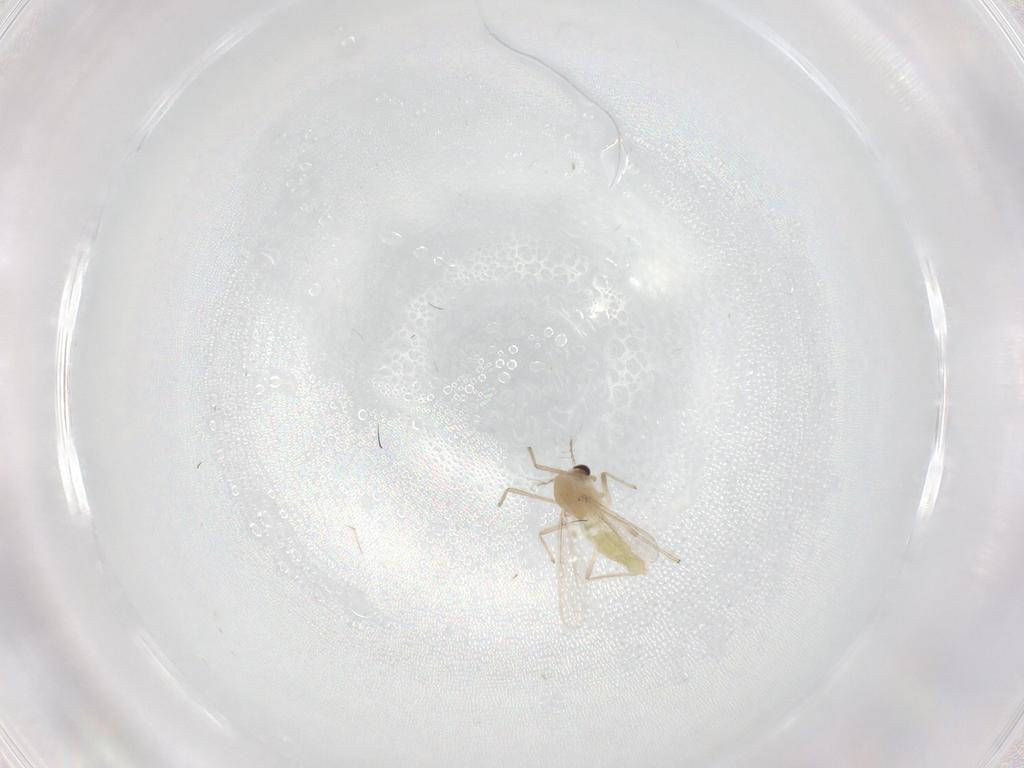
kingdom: Animalia
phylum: Arthropoda
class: Insecta
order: Diptera
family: Chironomidae
